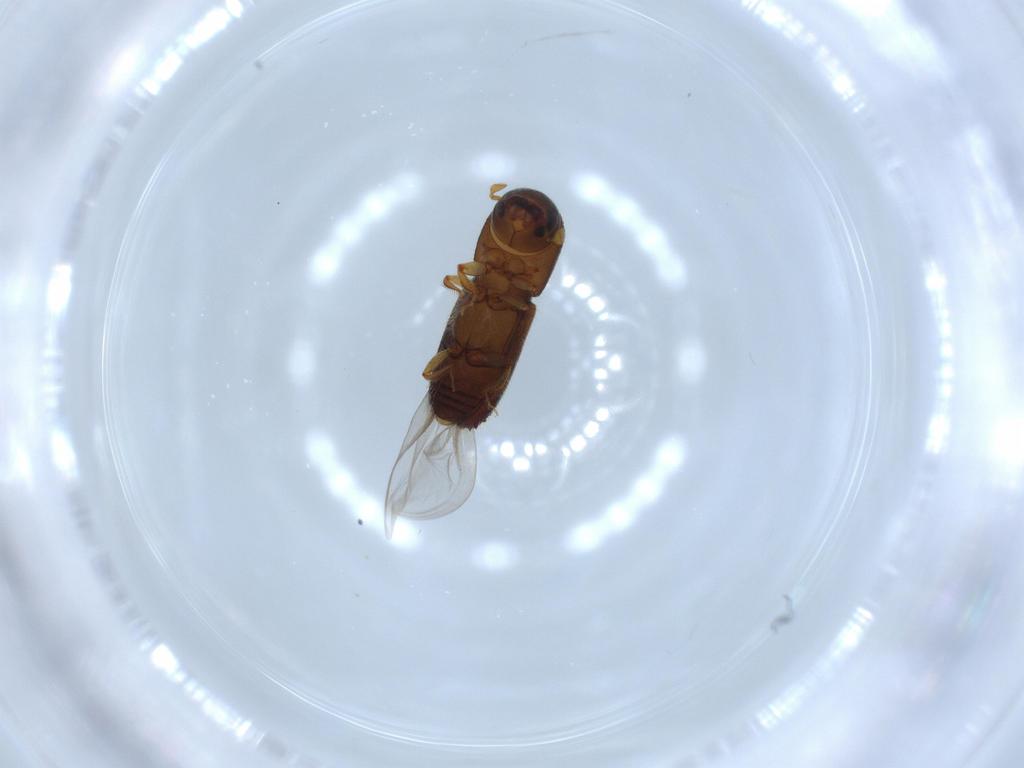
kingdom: Animalia
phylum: Arthropoda
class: Insecta
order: Coleoptera
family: Curculionidae
